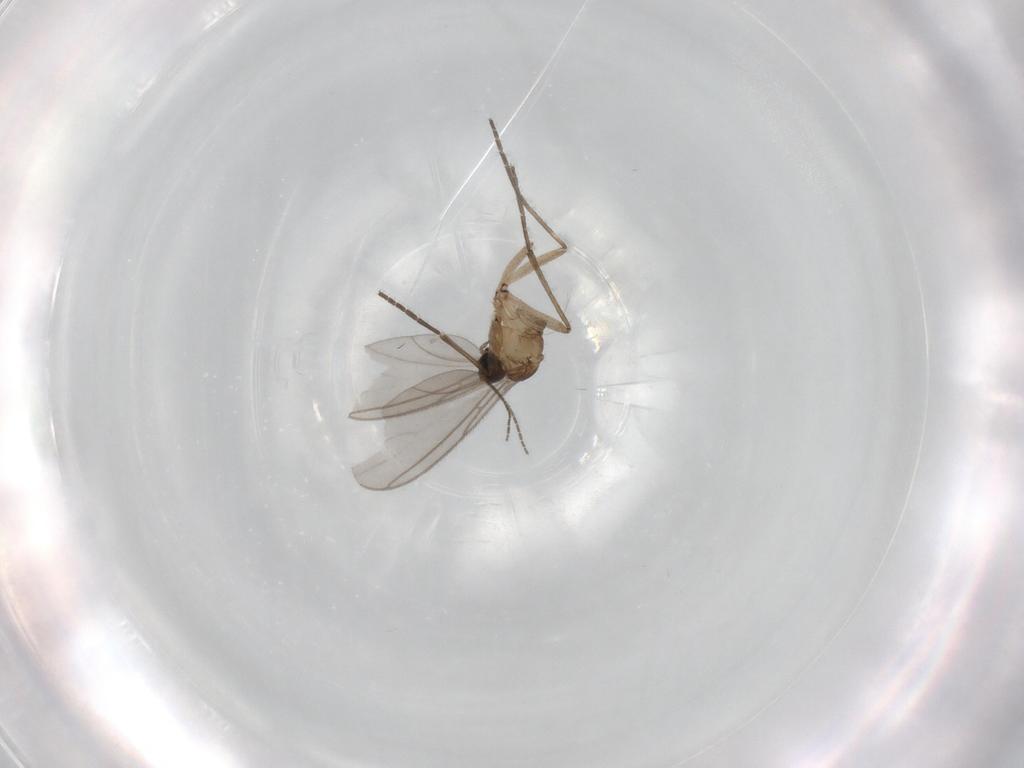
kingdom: Animalia
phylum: Arthropoda
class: Insecta
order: Diptera
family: Sciaridae
